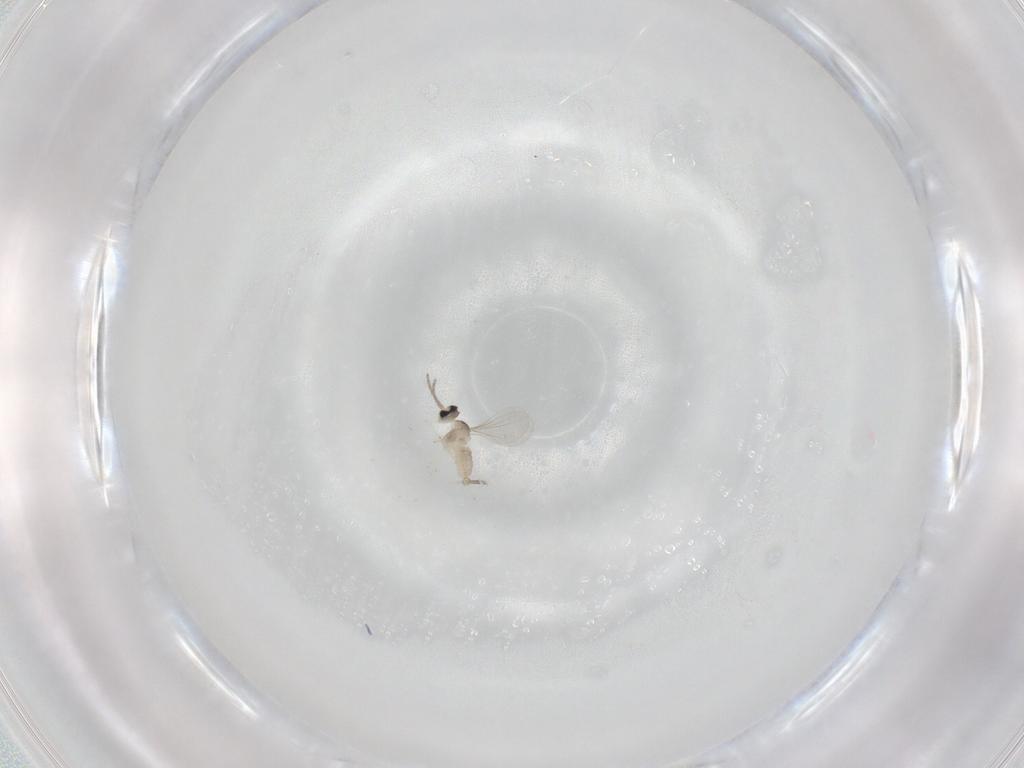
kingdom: Animalia
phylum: Arthropoda
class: Insecta
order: Diptera
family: Cecidomyiidae
